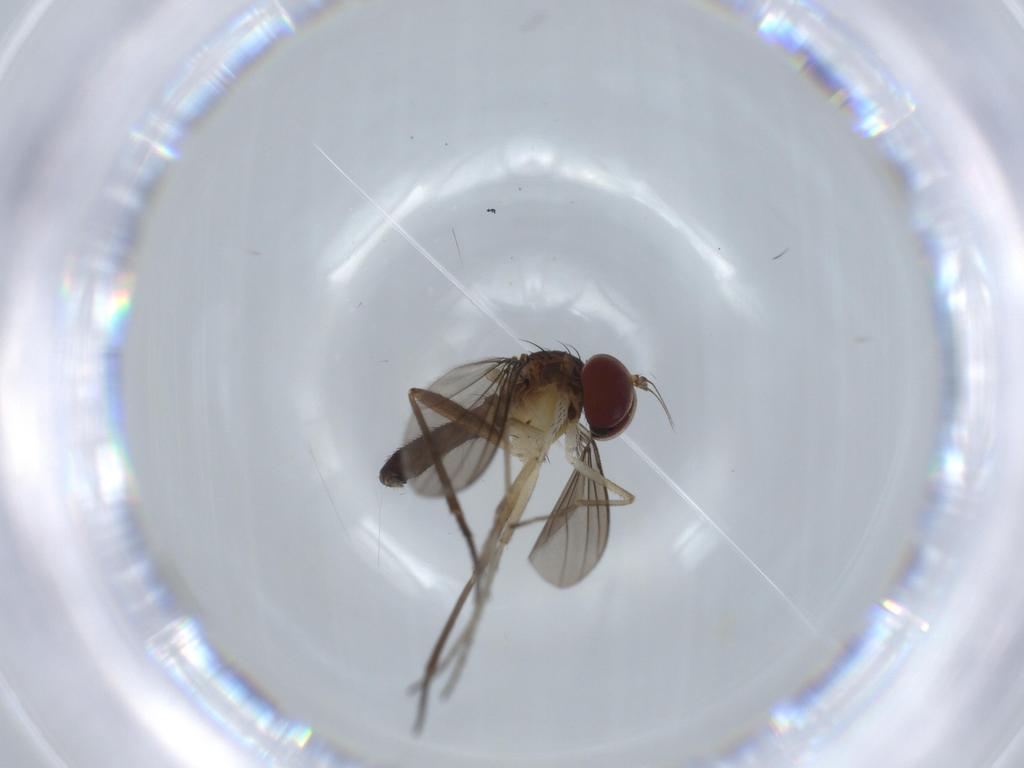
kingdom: Animalia
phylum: Arthropoda
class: Insecta
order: Diptera
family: Dolichopodidae
